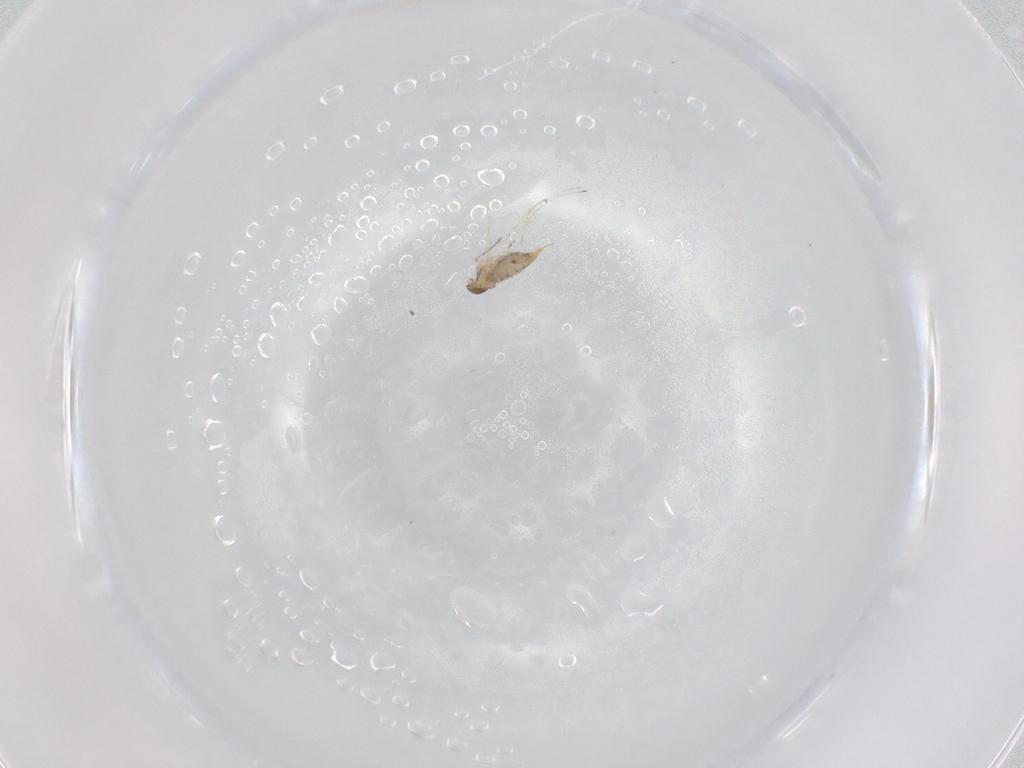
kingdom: Animalia
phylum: Arthropoda
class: Insecta
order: Diptera
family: Cecidomyiidae
